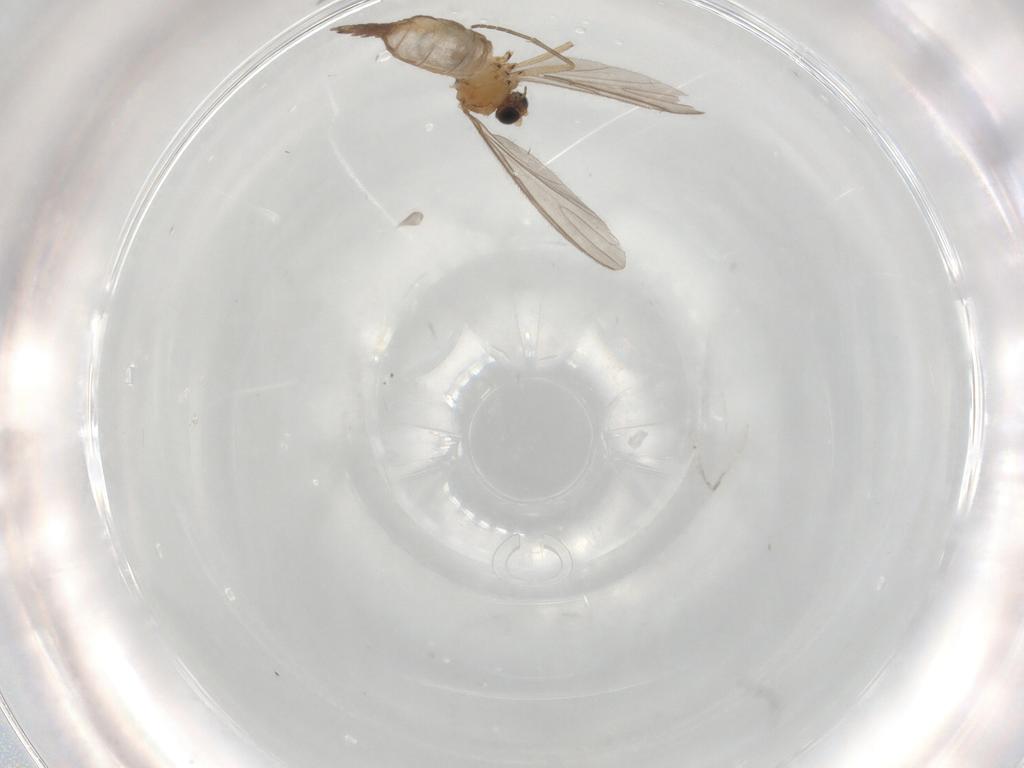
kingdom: Animalia
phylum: Arthropoda
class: Insecta
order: Diptera
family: Sciaridae
